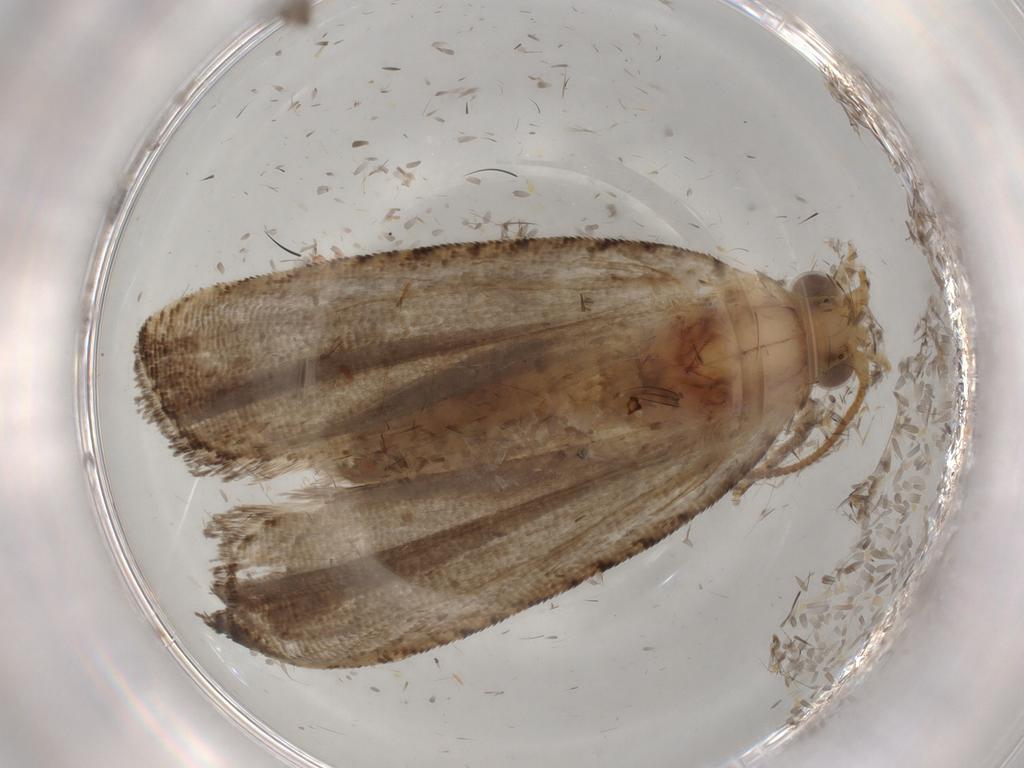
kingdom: Animalia
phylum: Arthropoda
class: Insecta
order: Lepidoptera
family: Tortricidae
